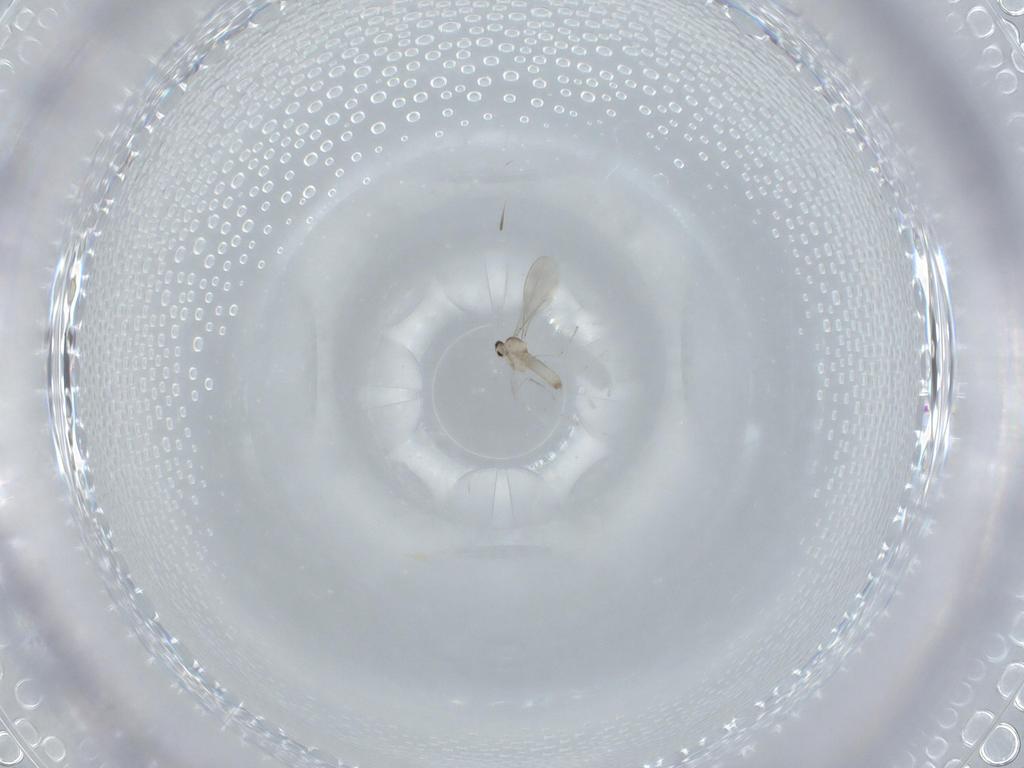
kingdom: Animalia
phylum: Arthropoda
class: Insecta
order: Diptera
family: Cecidomyiidae
